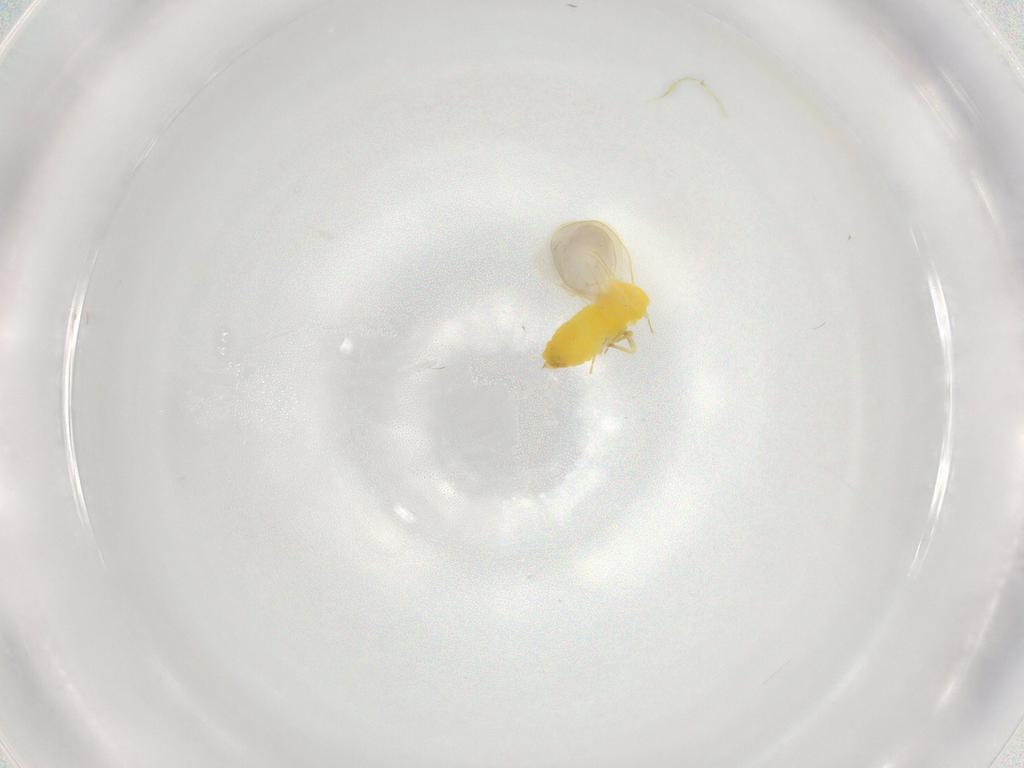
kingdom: Animalia
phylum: Arthropoda
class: Insecta
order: Hemiptera
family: Aleyrodidae
